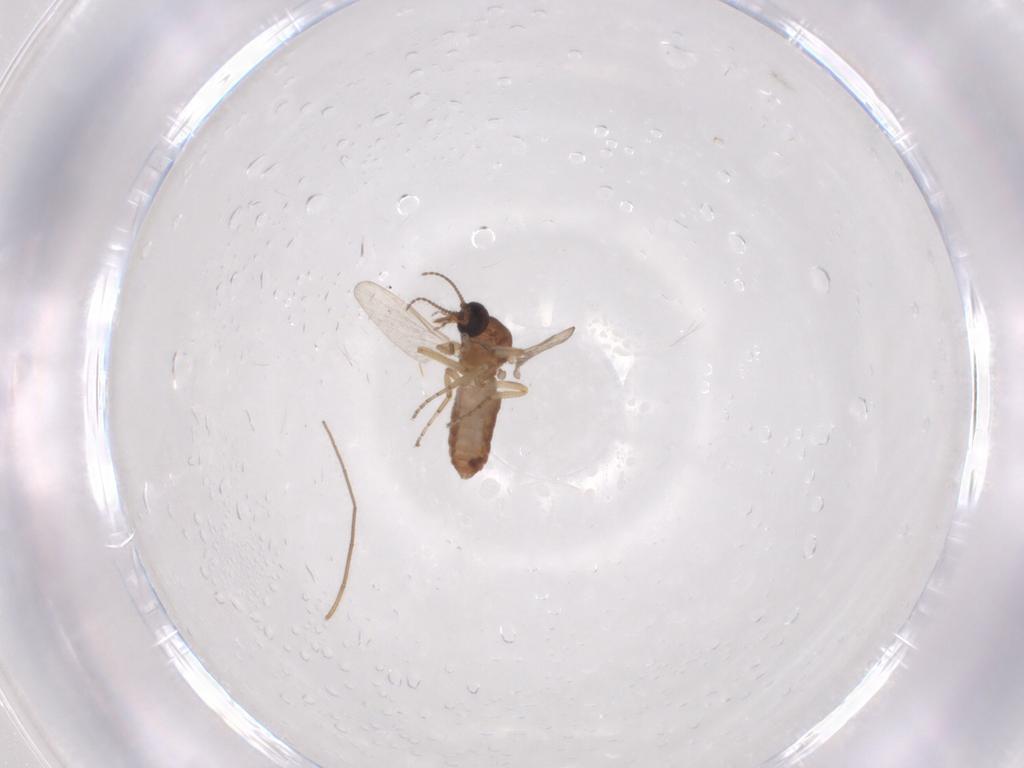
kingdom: Animalia
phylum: Arthropoda
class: Insecta
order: Diptera
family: Ceratopogonidae
